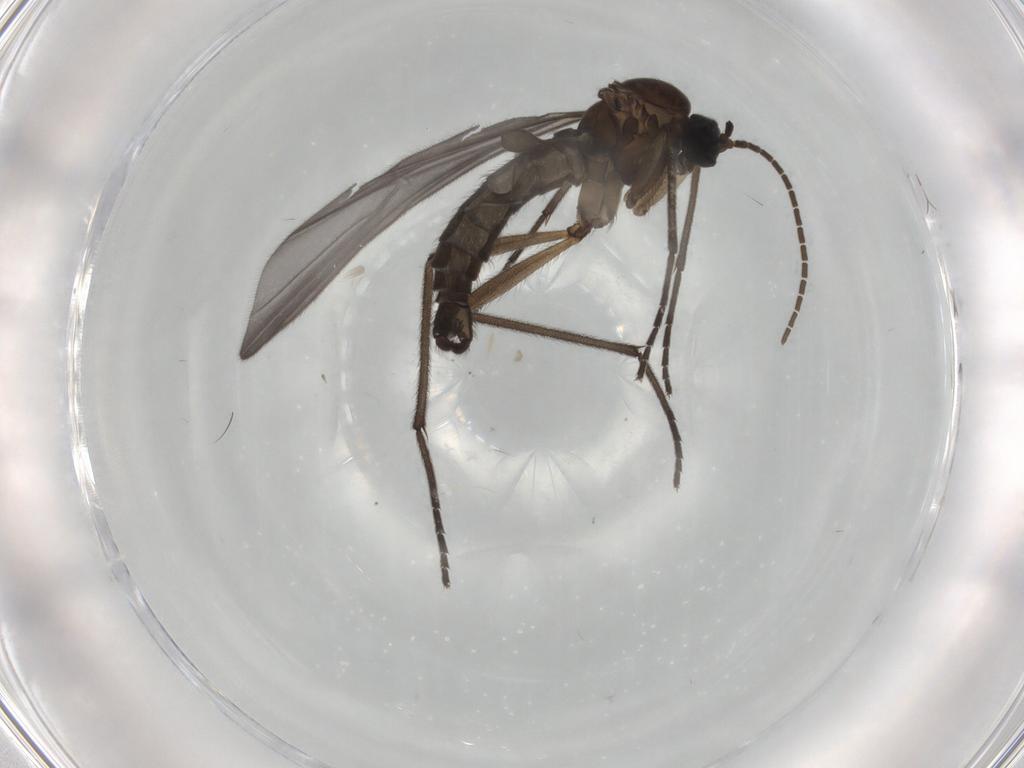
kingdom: Animalia
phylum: Arthropoda
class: Insecta
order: Diptera
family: Sciaridae
